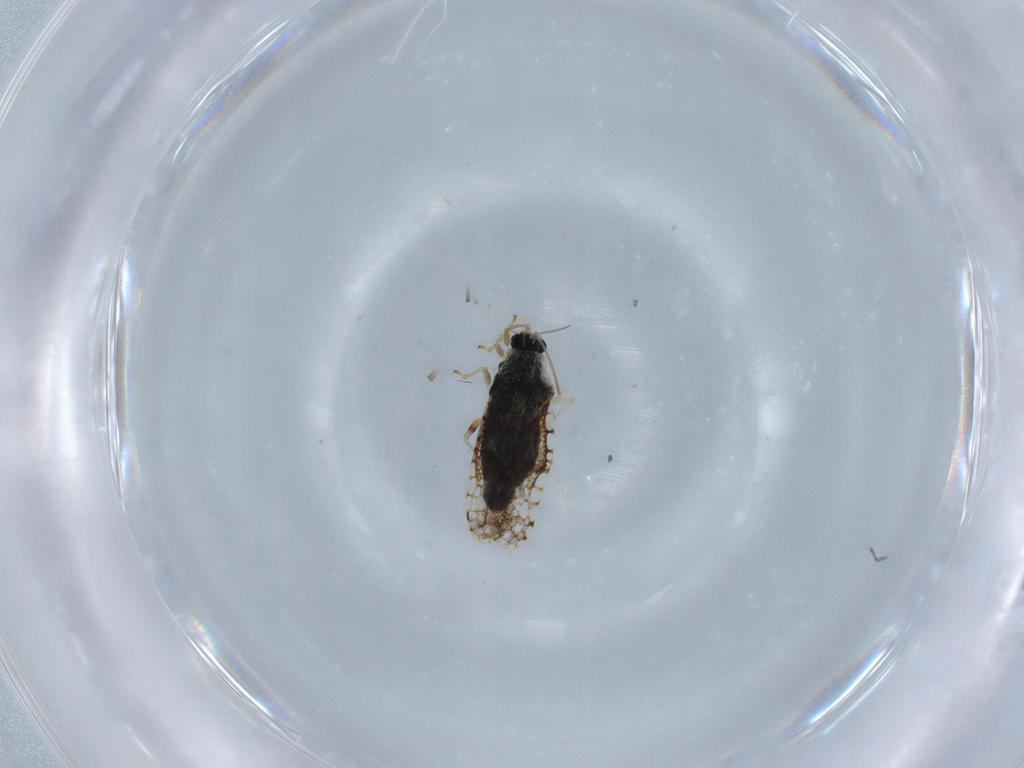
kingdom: Animalia
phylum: Arthropoda
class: Insecta
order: Hemiptera
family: Tingidae
